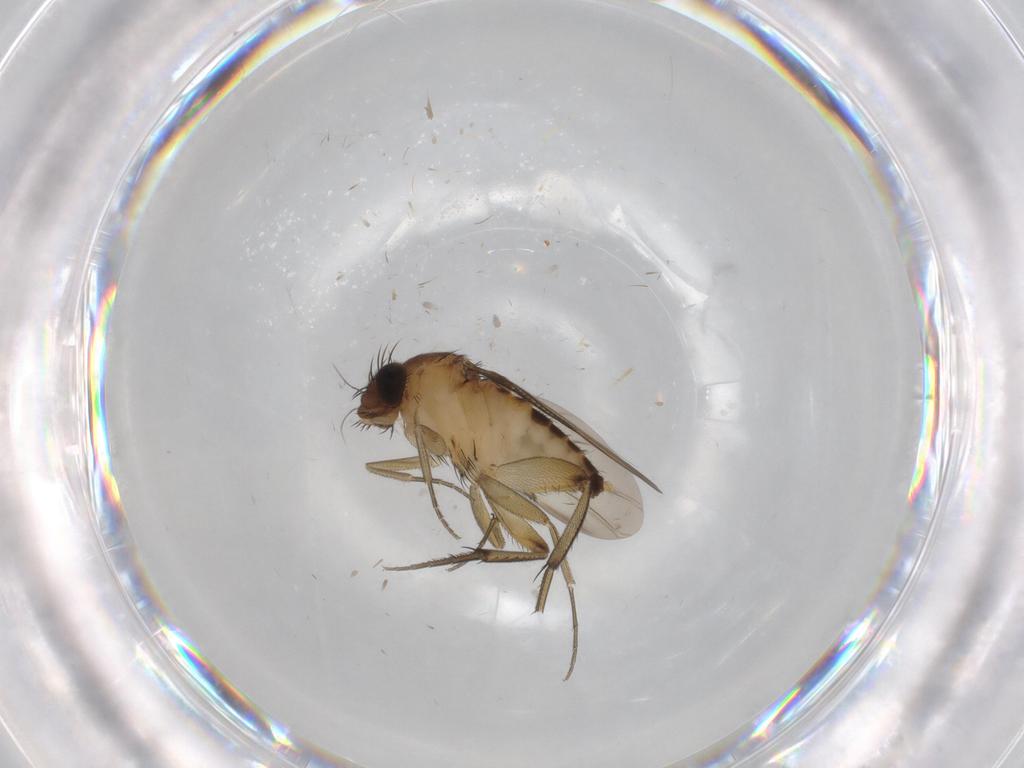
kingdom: Animalia
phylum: Arthropoda
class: Insecta
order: Diptera
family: Phoridae
